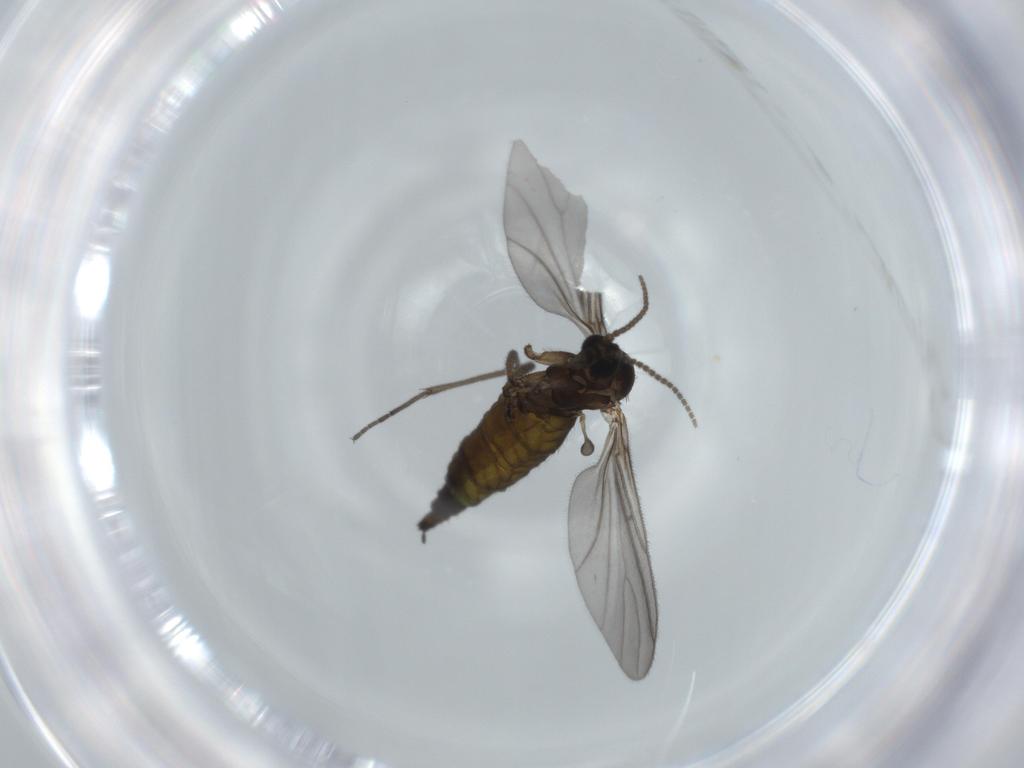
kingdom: Animalia
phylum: Arthropoda
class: Insecta
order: Diptera
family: Sciaridae
